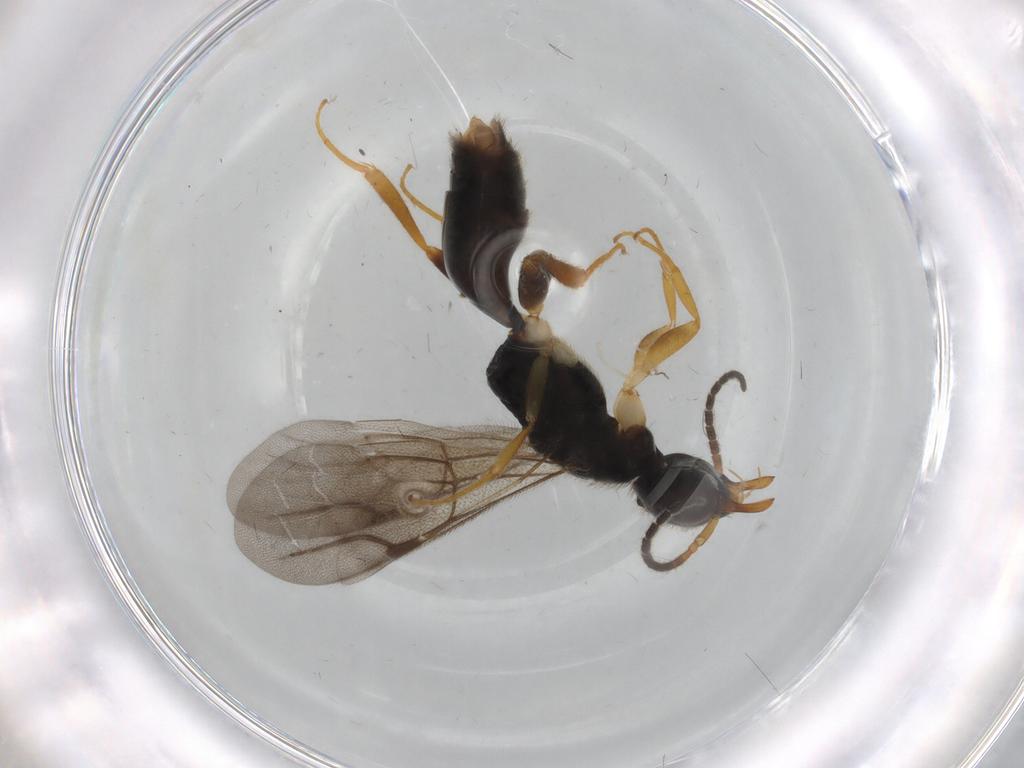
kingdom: Animalia
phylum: Arthropoda
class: Insecta
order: Hymenoptera
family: Bethylidae
